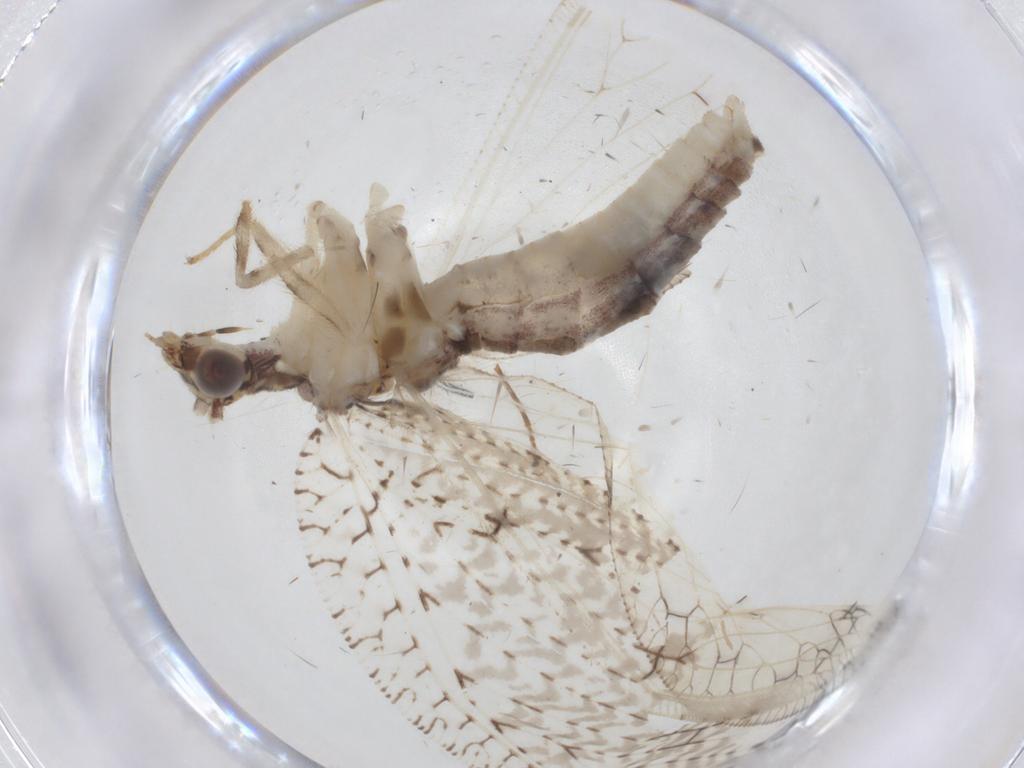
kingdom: Animalia
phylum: Arthropoda
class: Insecta
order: Neuroptera
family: Hemerobiidae
